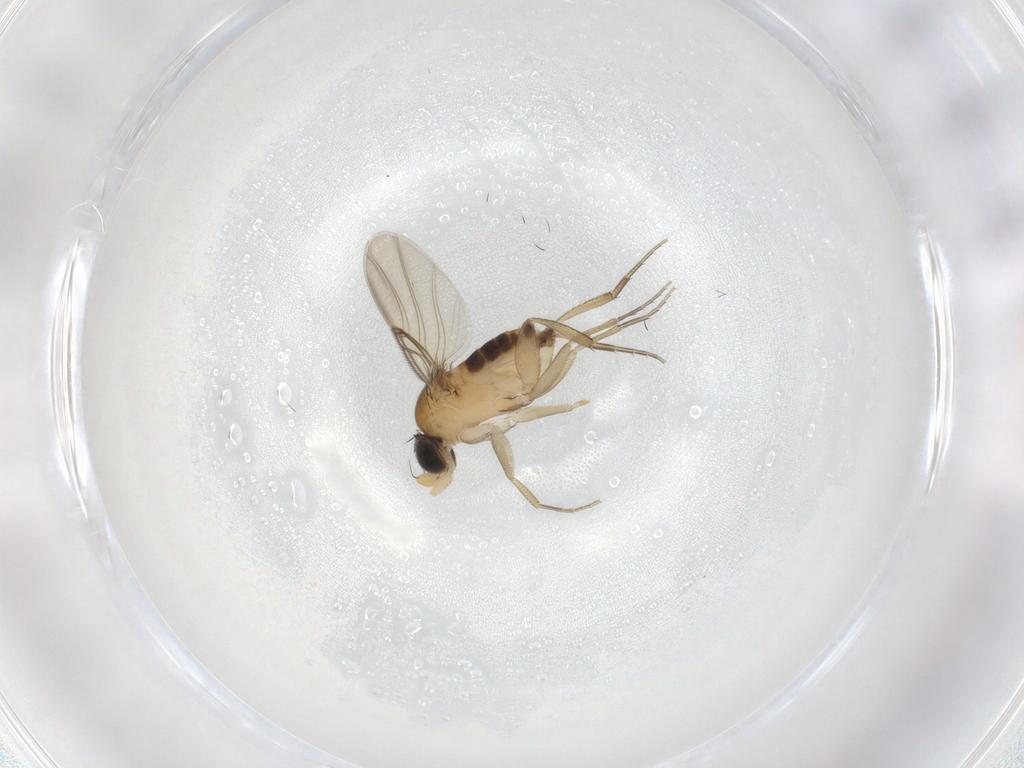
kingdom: Animalia
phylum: Arthropoda
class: Insecta
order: Diptera
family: Phoridae
